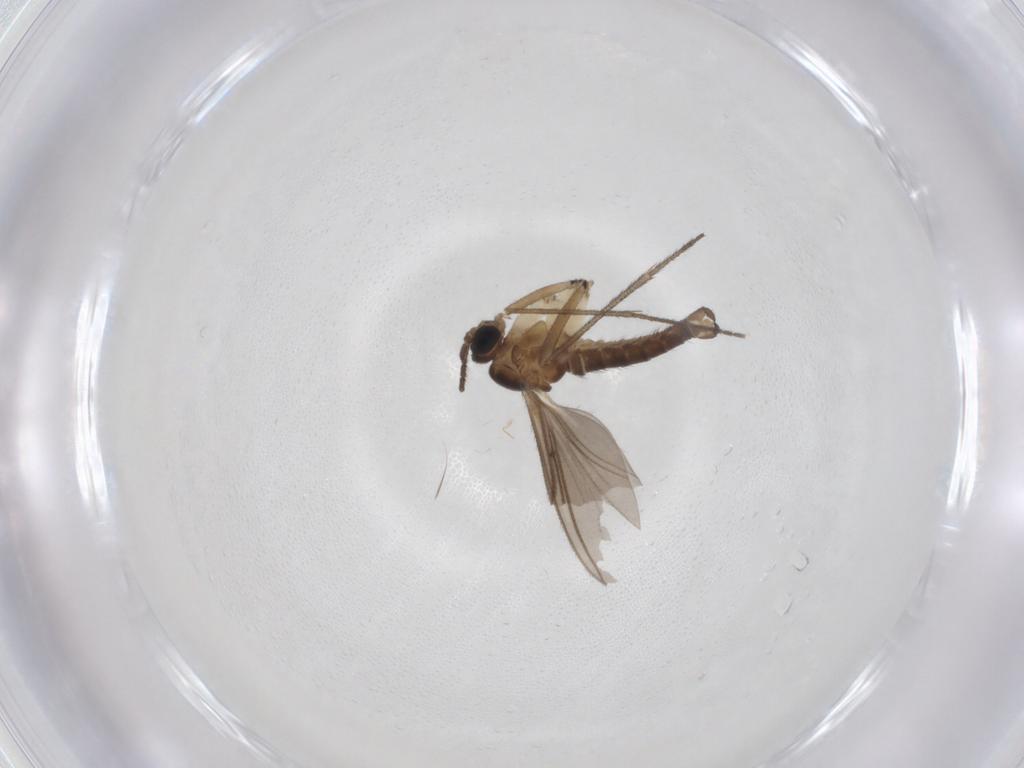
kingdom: Animalia
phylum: Arthropoda
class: Insecta
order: Diptera
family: Sciaridae
